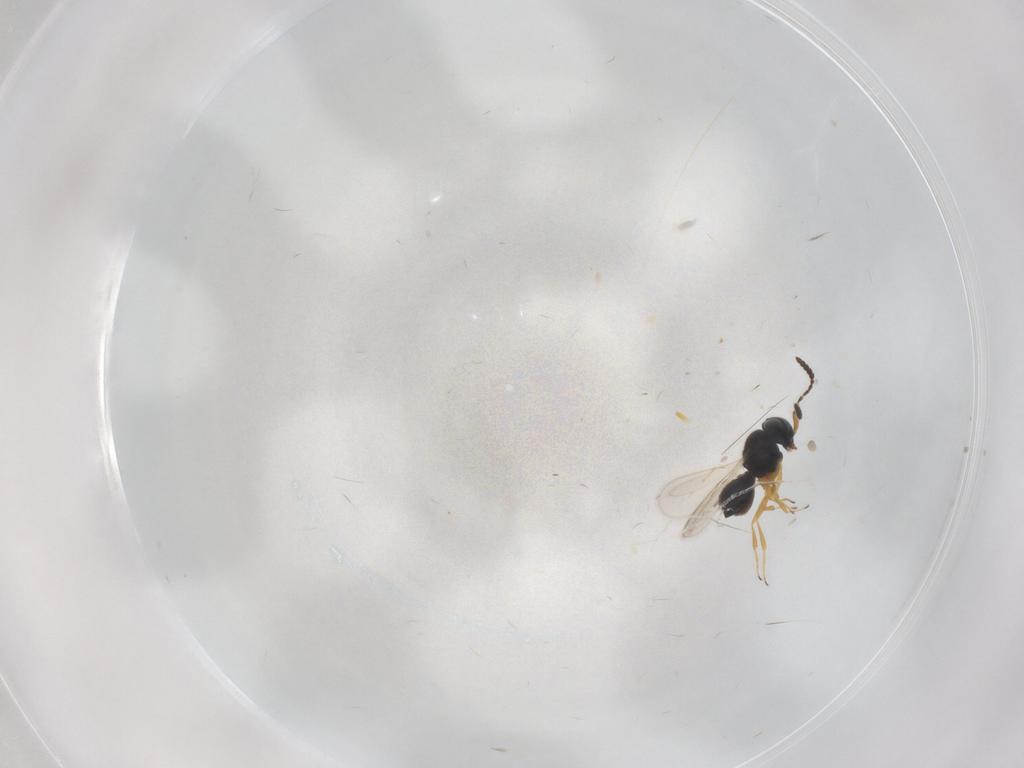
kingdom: Animalia
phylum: Arthropoda
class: Insecta
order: Hymenoptera
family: Scelionidae
